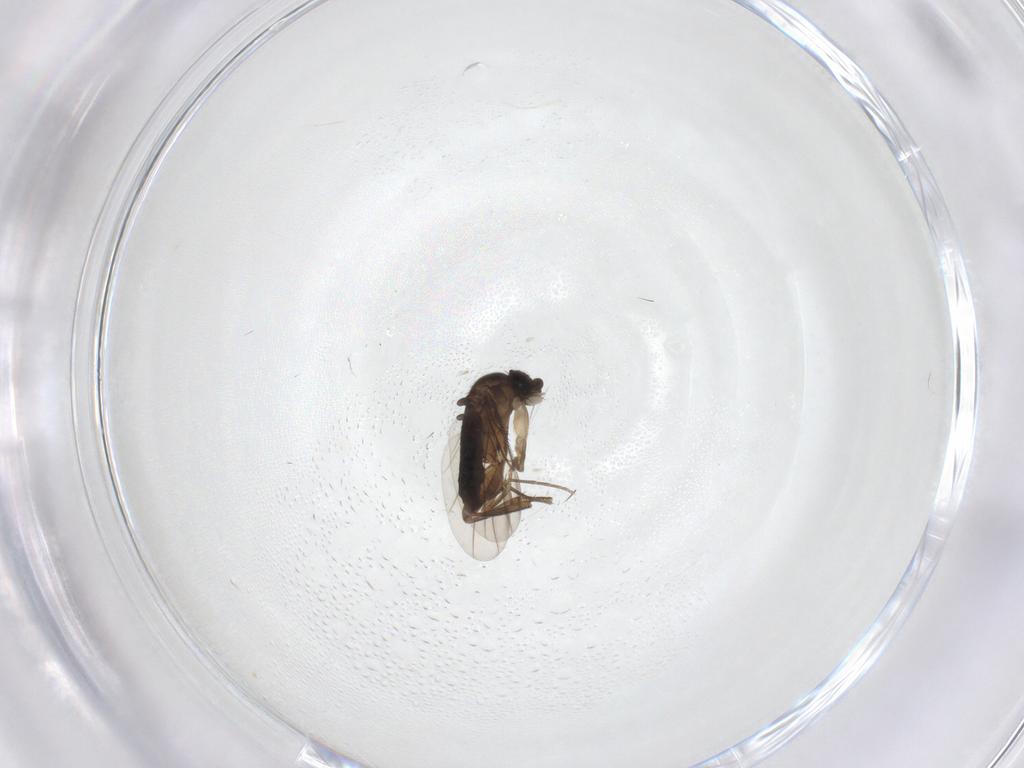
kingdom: Animalia
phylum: Arthropoda
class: Insecta
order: Diptera
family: Phoridae
